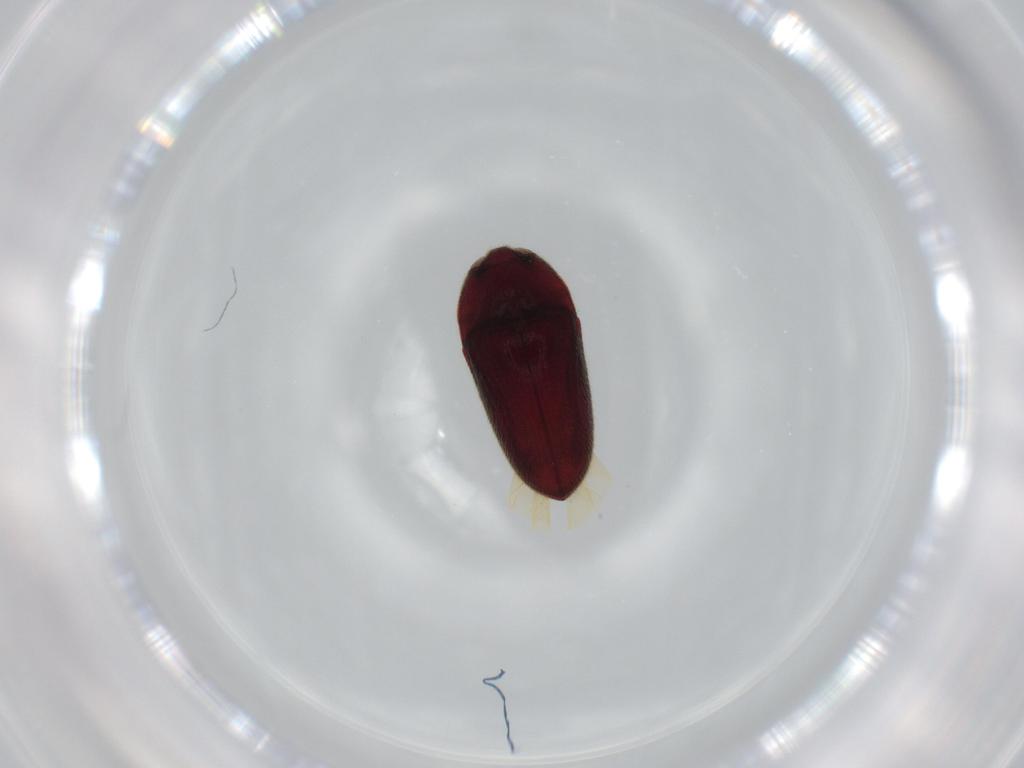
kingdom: Animalia
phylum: Arthropoda
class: Insecta
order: Coleoptera
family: Throscidae
